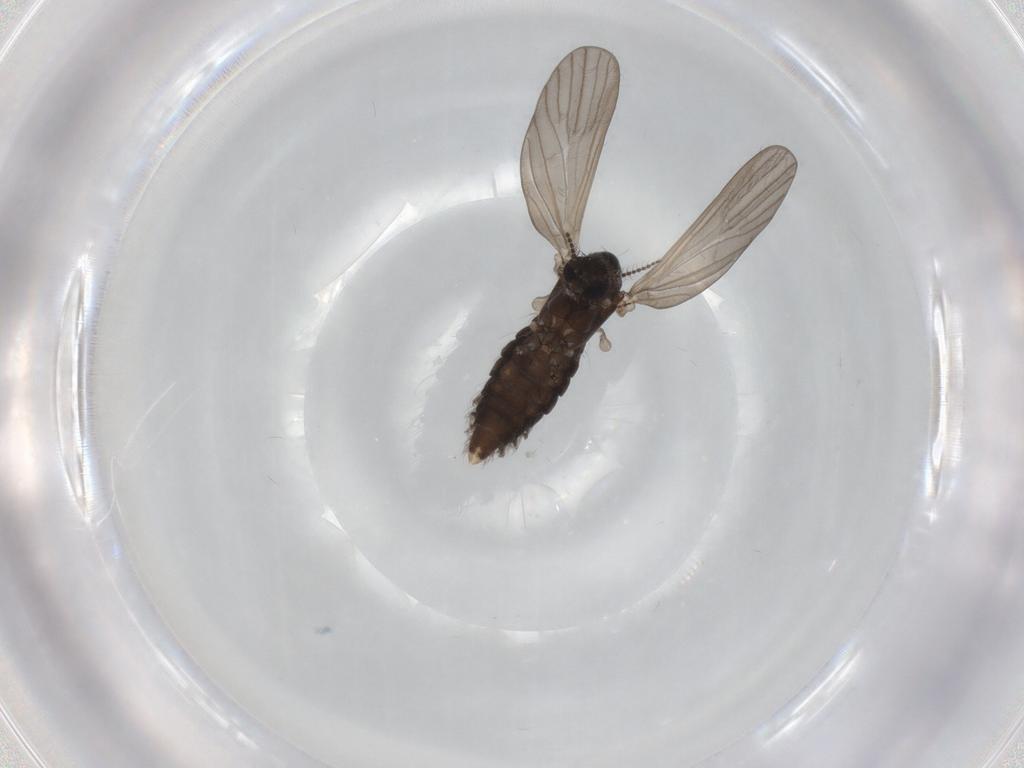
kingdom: Animalia
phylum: Arthropoda
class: Insecta
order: Diptera
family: Limoniidae
